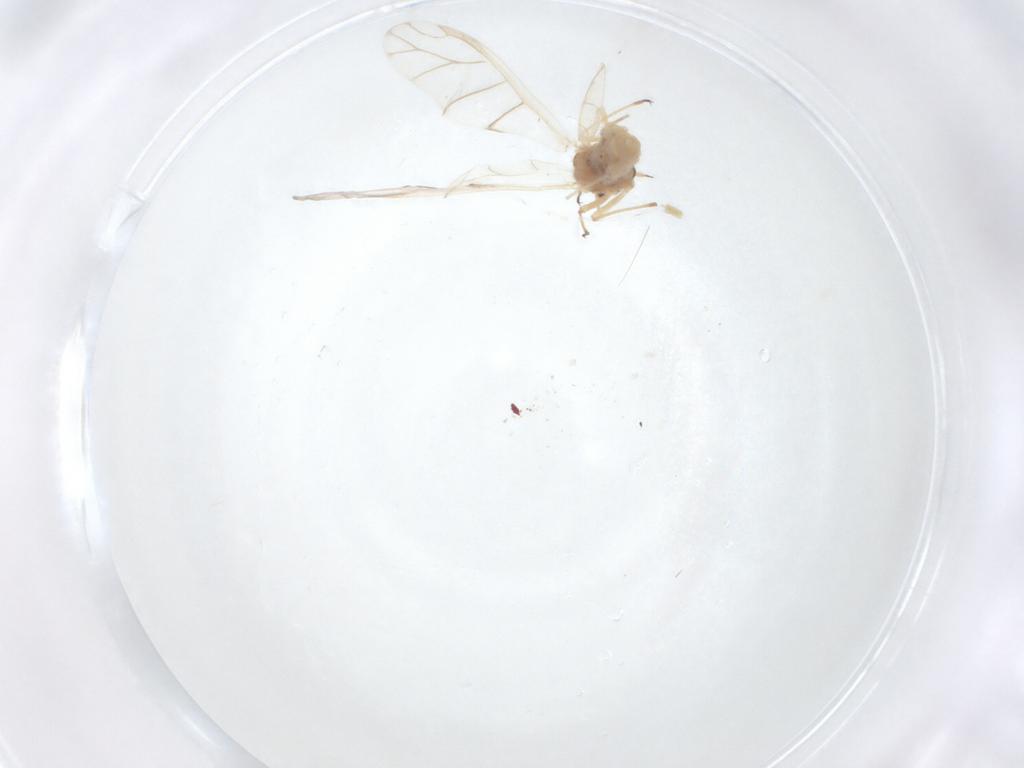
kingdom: Animalia
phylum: Arthropoda
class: Insecta
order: Hemiptera
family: Aphididae
